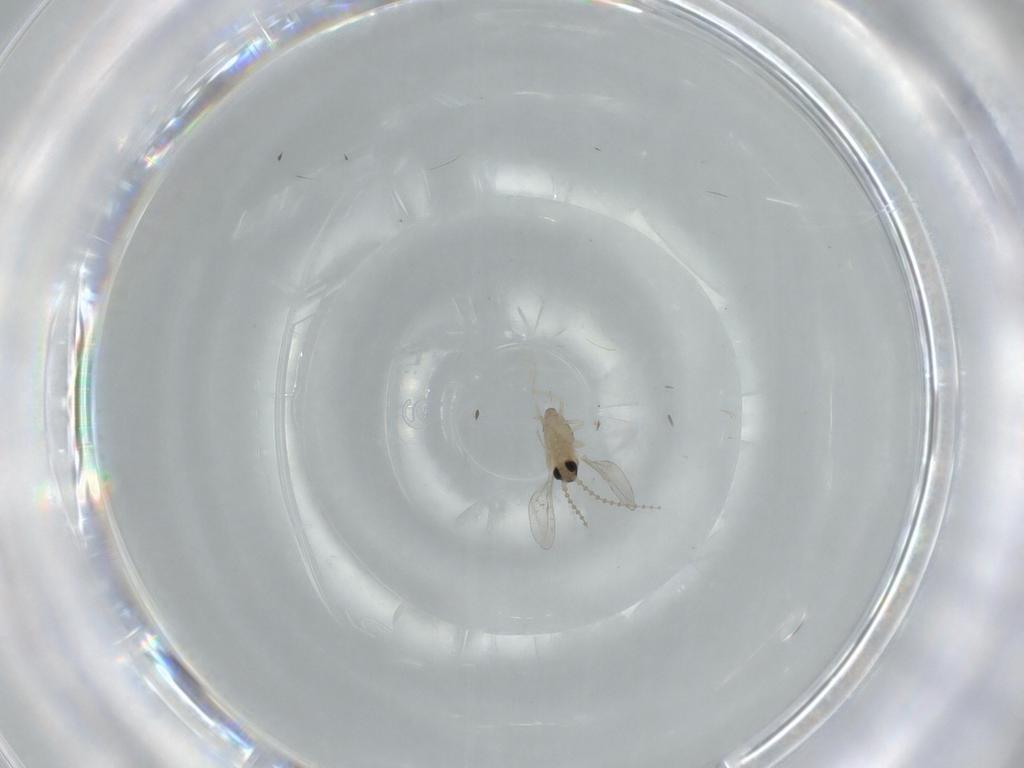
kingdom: Animalia
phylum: Arthropoda
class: Insecta
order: Diptera
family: Cecidomyiidae
